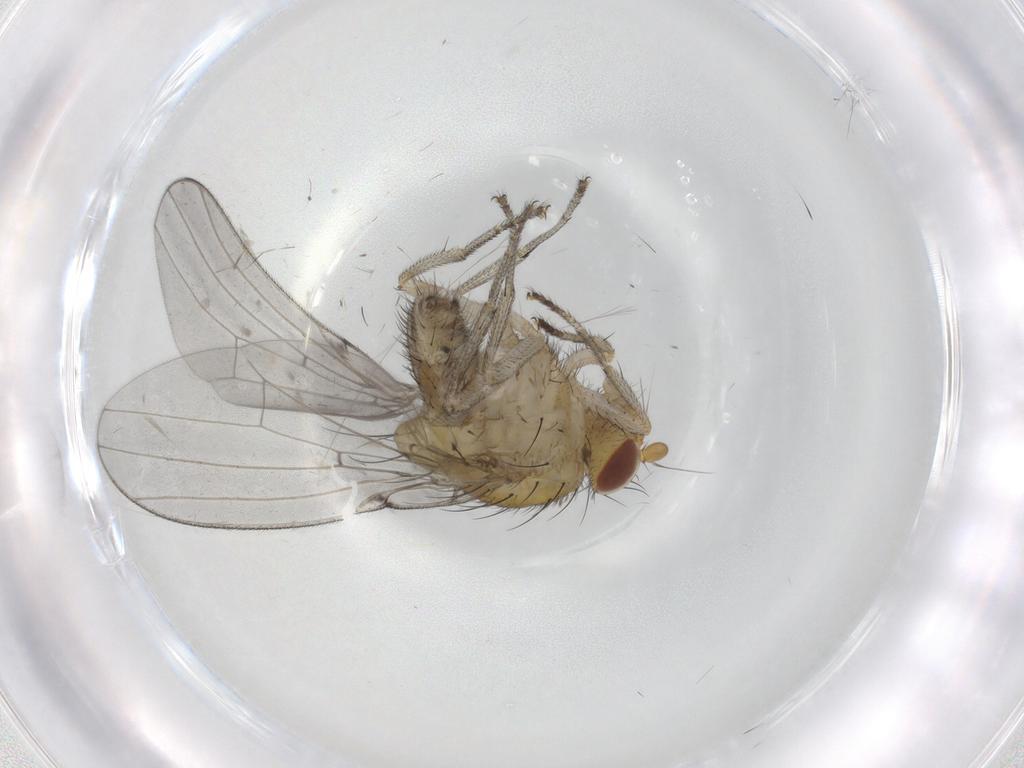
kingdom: Animalia
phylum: Arthropoda
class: Insecta
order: Diptera
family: Lauxaniidae
